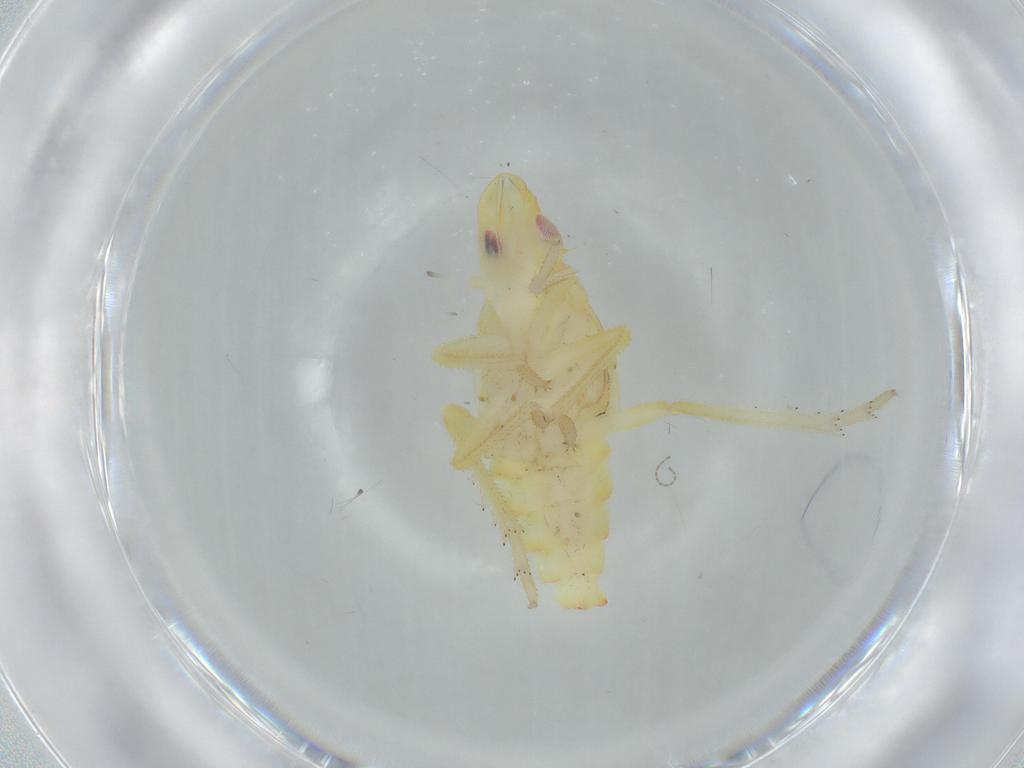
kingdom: Animalia
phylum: Arthropoda
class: Insecta
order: Hemiptera
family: Tropiduchidae
